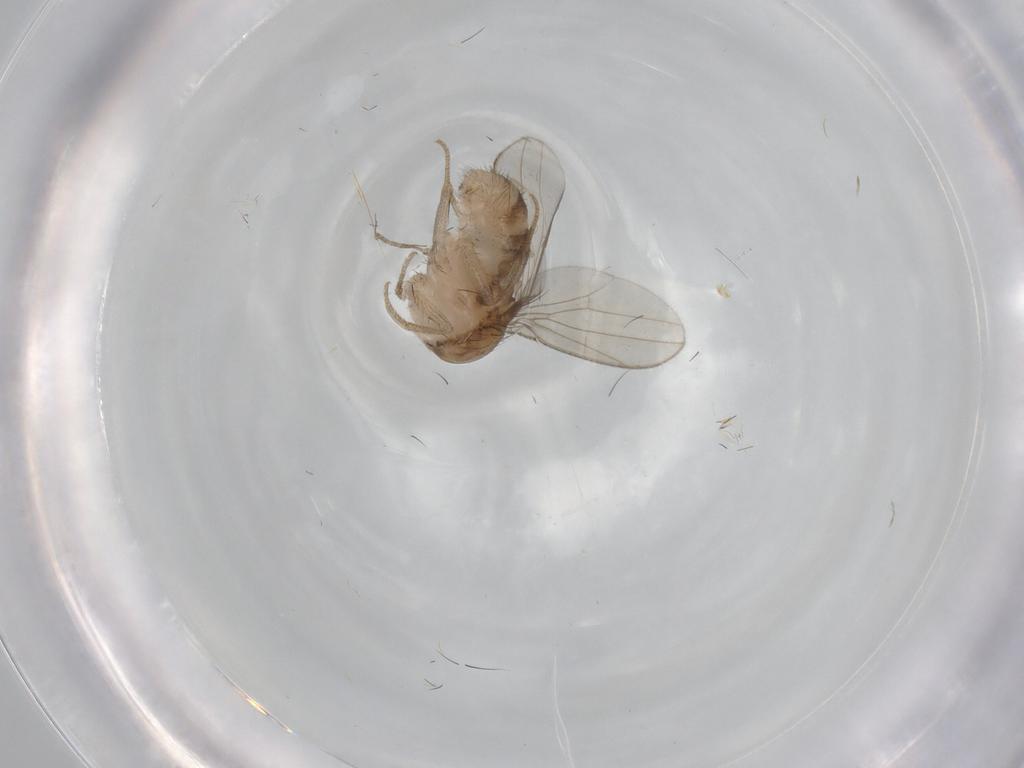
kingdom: Animalia
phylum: Arthropoda
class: Insecta
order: Diptera
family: Drosophilidae
